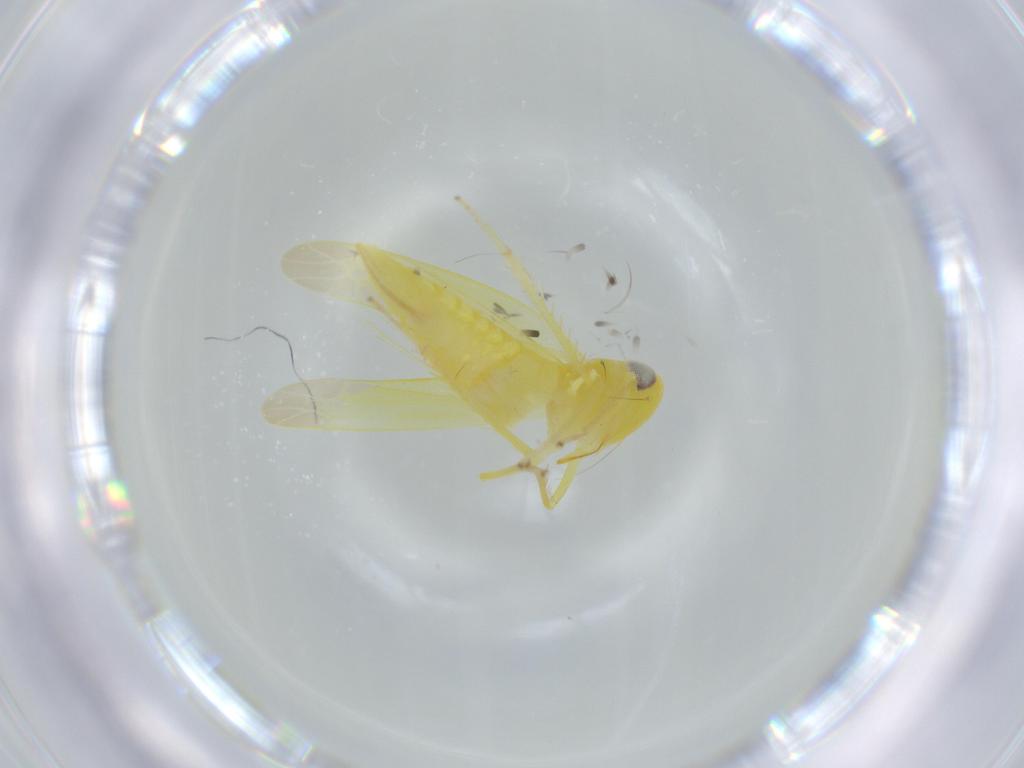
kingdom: Animalia
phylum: Arthropoda
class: Insecta
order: Hemiptera
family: Cicadellidae
